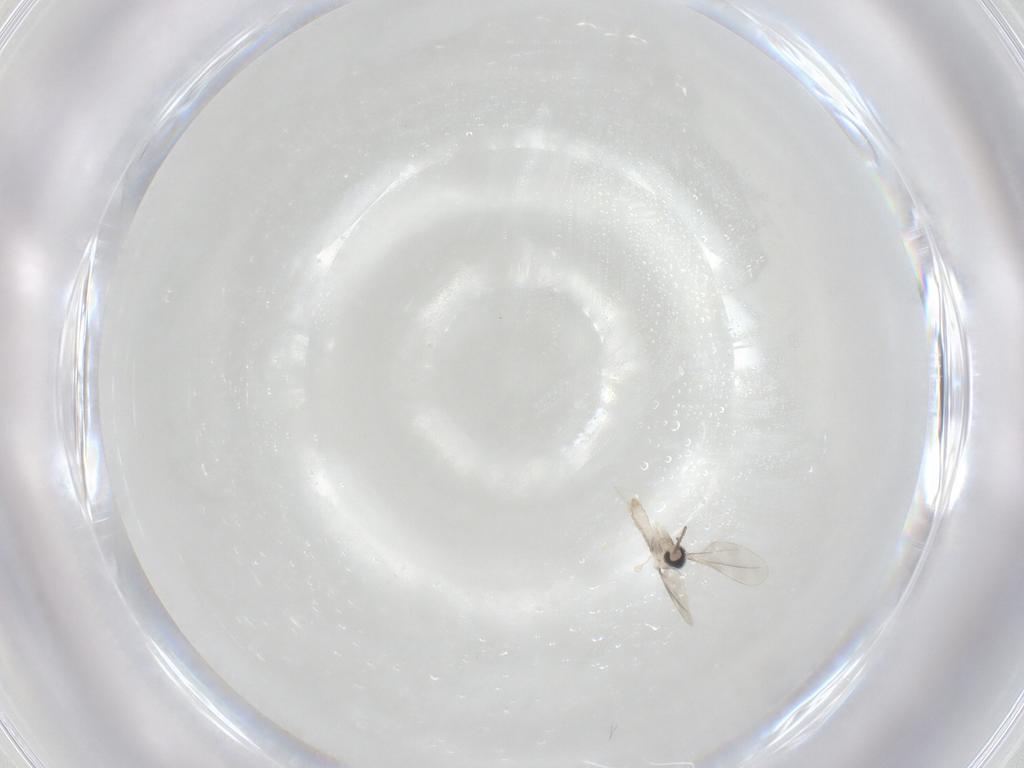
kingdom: Animalia
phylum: Arthropoda
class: Insecta
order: Diptera
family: Cecidomyiidae
